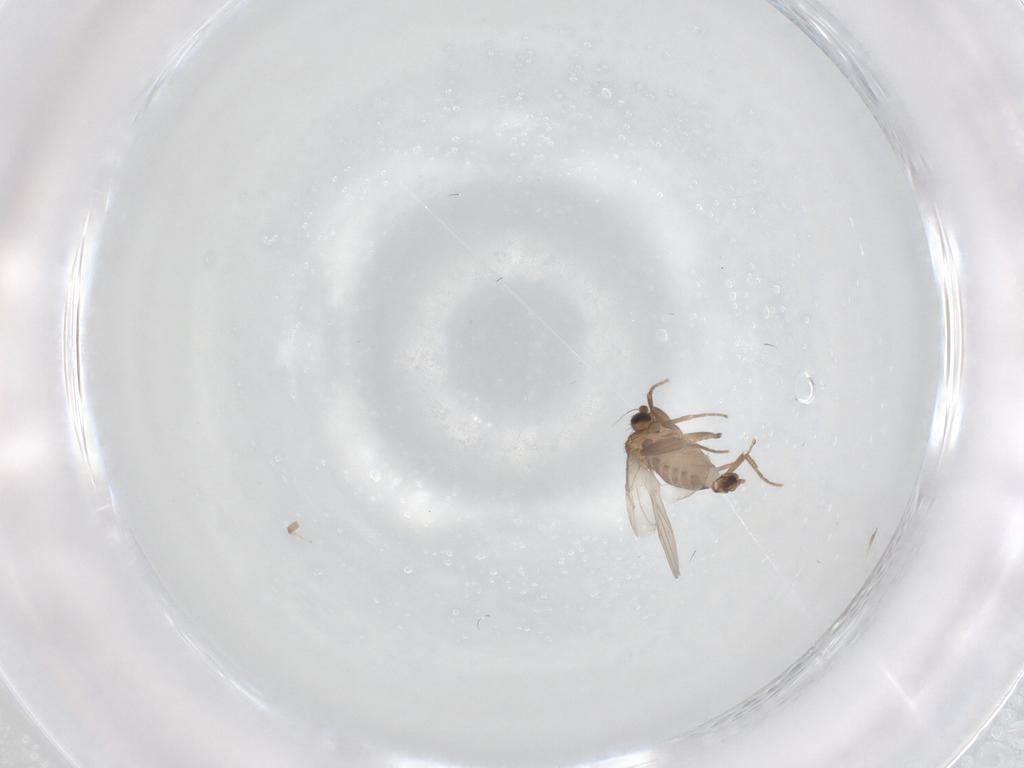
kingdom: Animalia
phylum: Arthropoda
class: Insecta
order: Diptera
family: Phoridae
